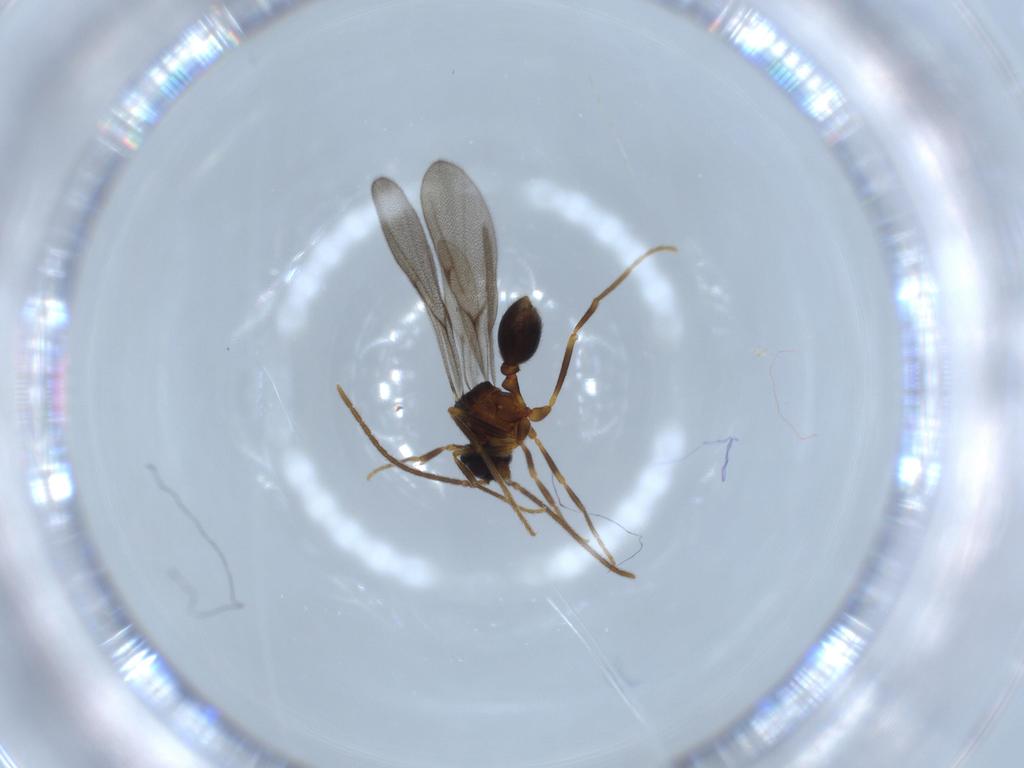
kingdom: Animalia
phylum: Arthropoda
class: Insecta
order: Hymenoptera
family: Formicidae
